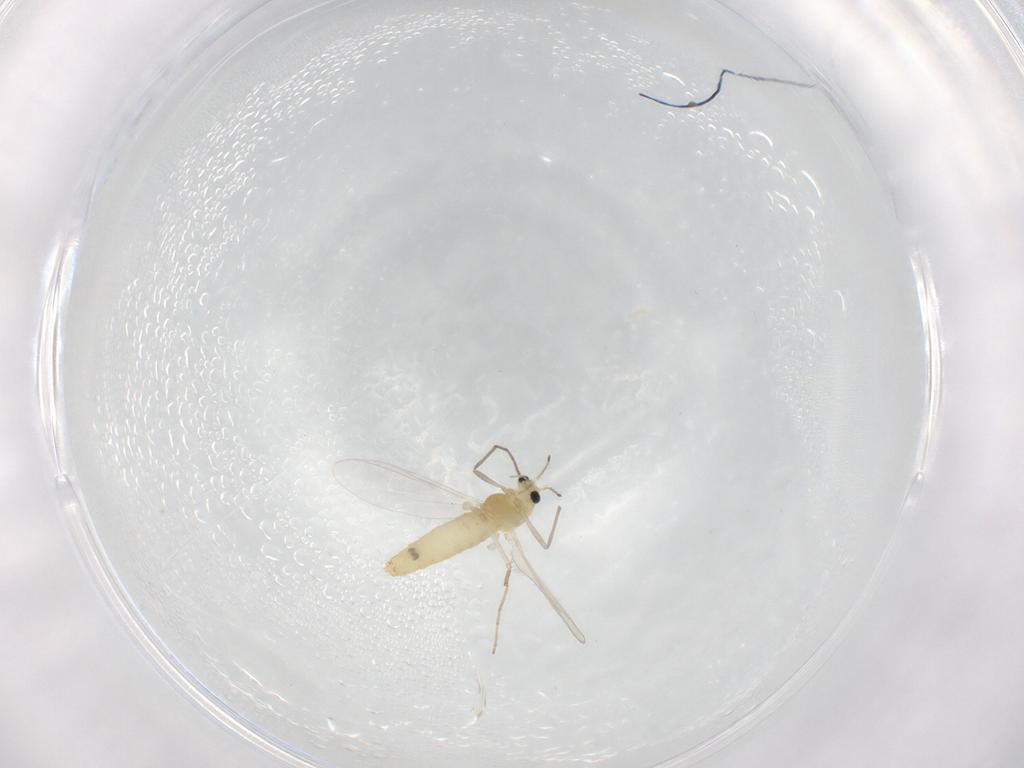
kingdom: Animalia
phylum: Arthropoda
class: Insecta
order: Diptera
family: Chironomidae
